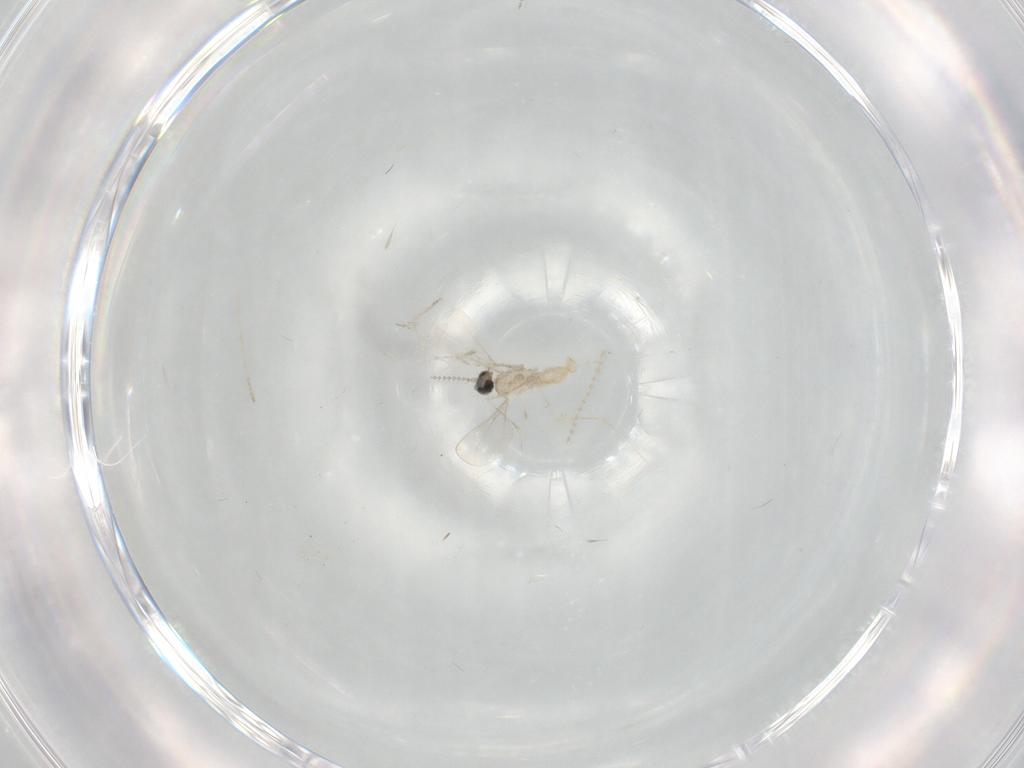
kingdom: Animalia
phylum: Arthropoda
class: Insecta
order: Diptera
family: Cecidomyiidae
